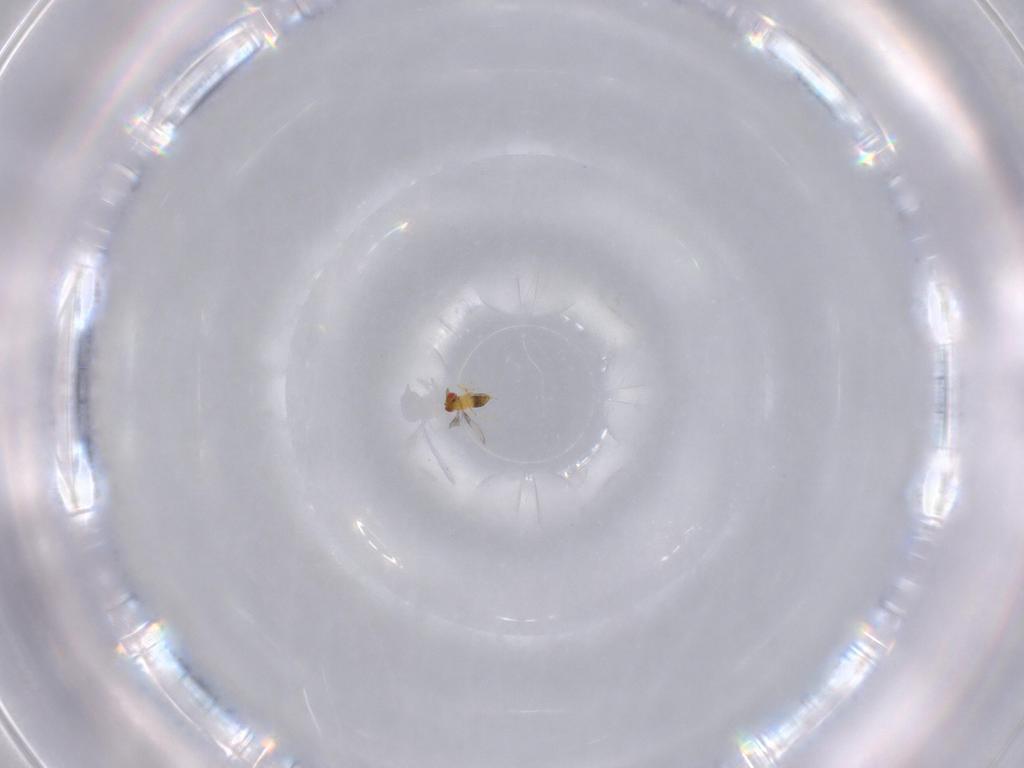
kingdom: Animalia
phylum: Arthropoda
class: Insecta
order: Hymenoptera
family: Trichogrammatidae
